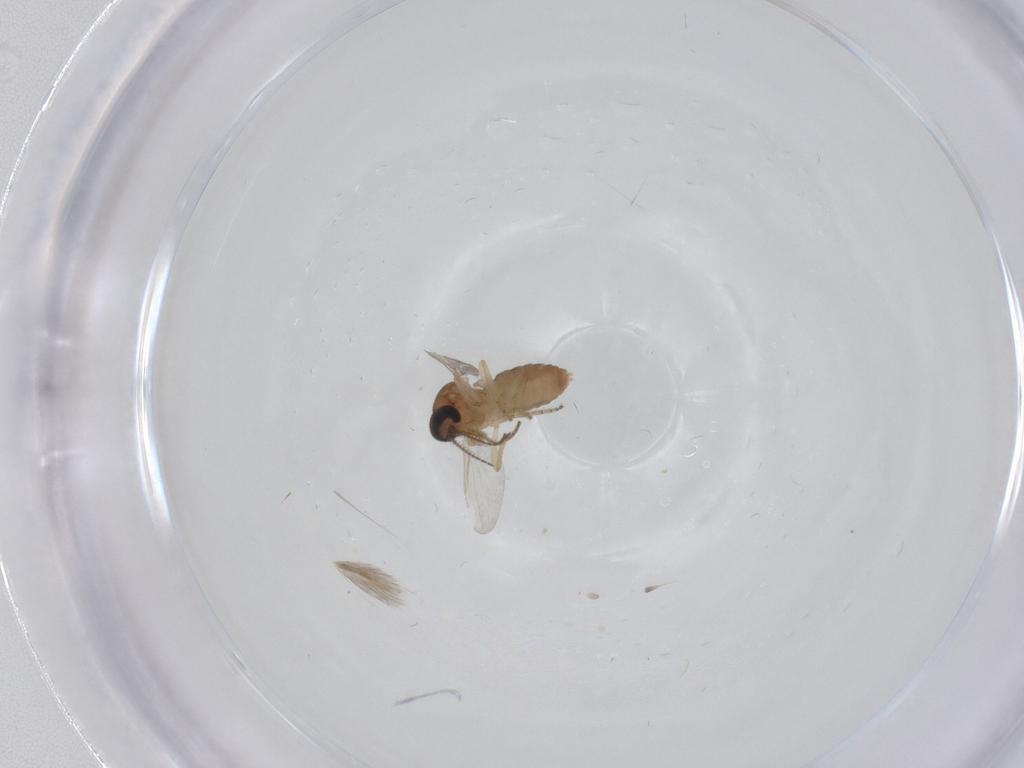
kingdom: Animalia
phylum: Arthropoda
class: Insecta
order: Diptera
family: Ceratopogonidae
